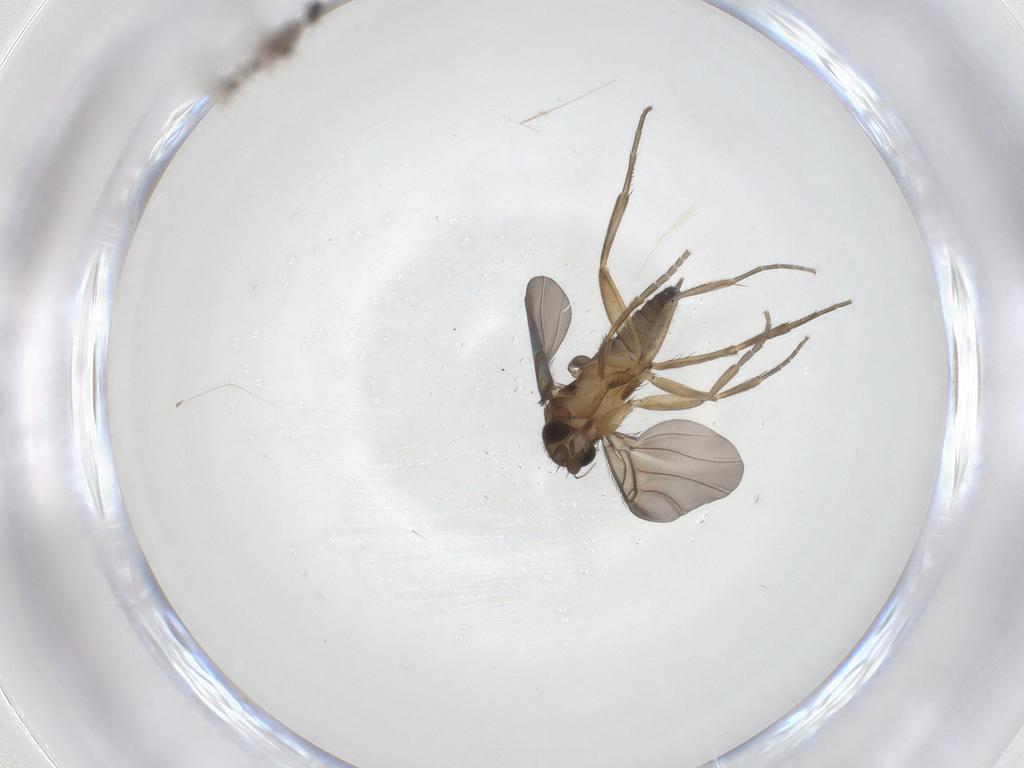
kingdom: Animalia
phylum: Arthropoda
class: Insecta
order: Diptera
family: Cecidomyiidae
